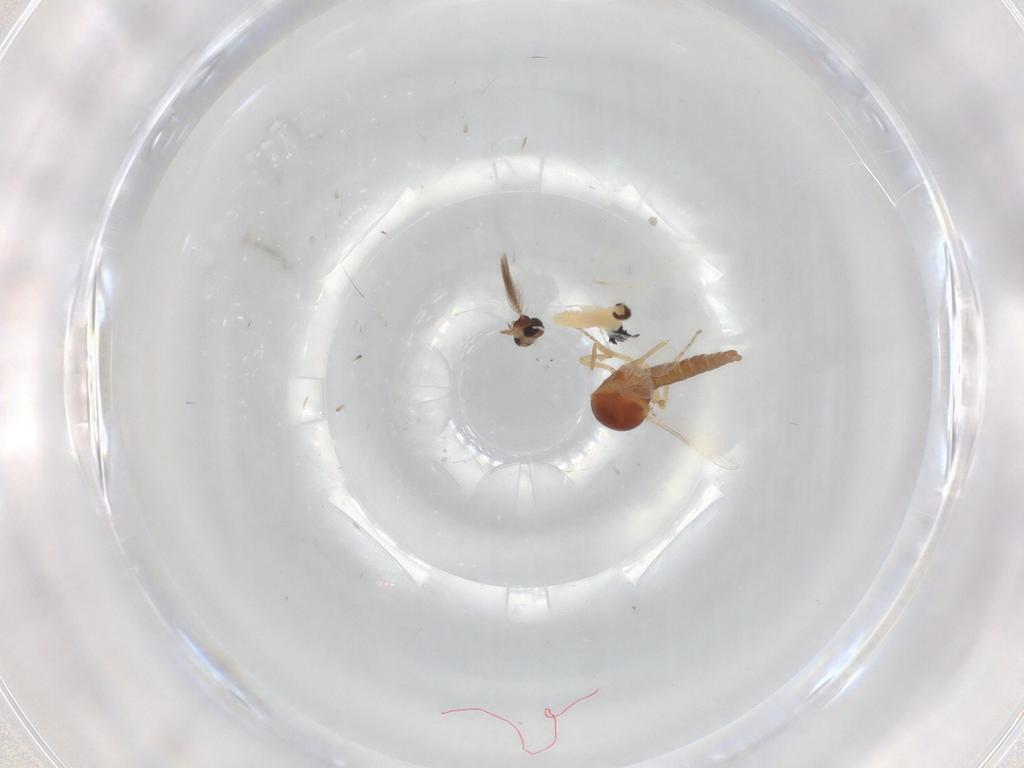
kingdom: Animalia
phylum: Arthropoda
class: Insecta
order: Diptera
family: Cecidomyiidae
